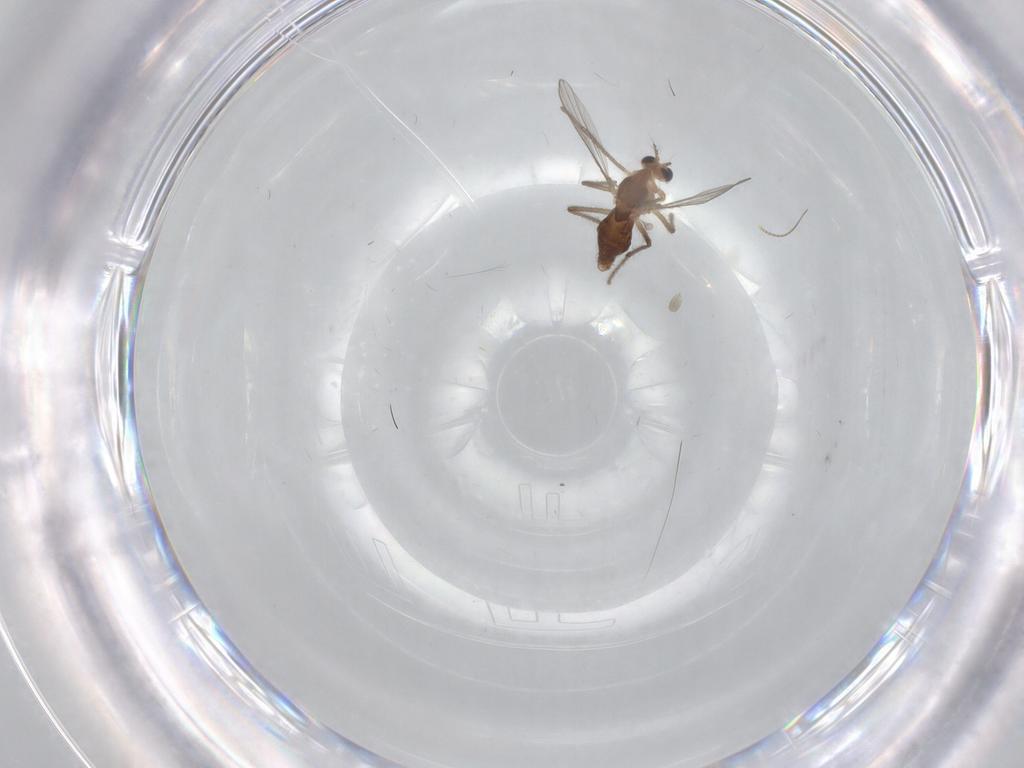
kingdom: Animalia
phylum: Arthropoda
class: Insecta
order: Diptera
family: Chironomidae
